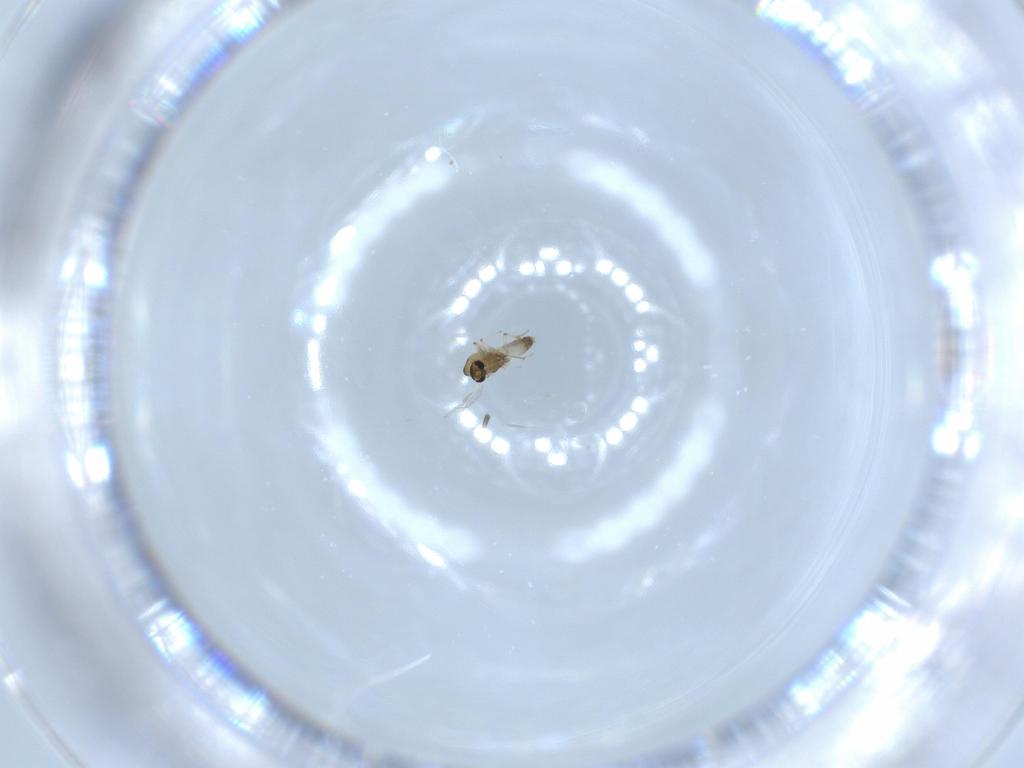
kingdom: Animalia
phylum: Arthropoda
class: Insecta
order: Diptera
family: Chironomidae
